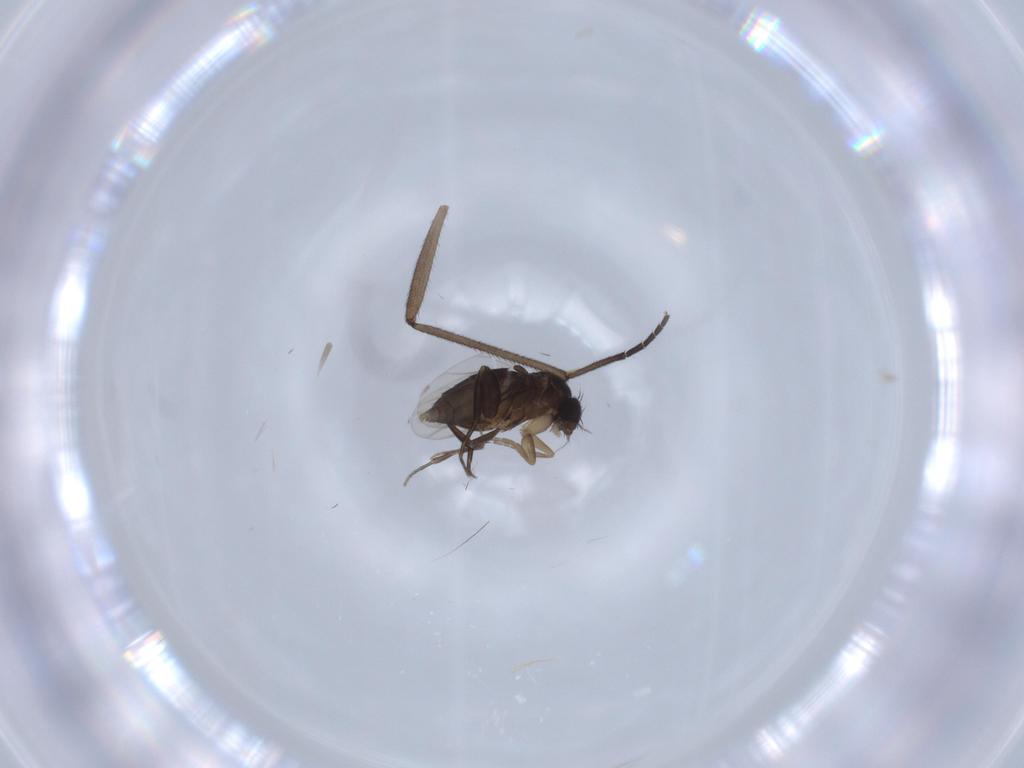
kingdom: Animalia
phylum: Arthropoda
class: Insecta
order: Diptera
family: Phoridae
